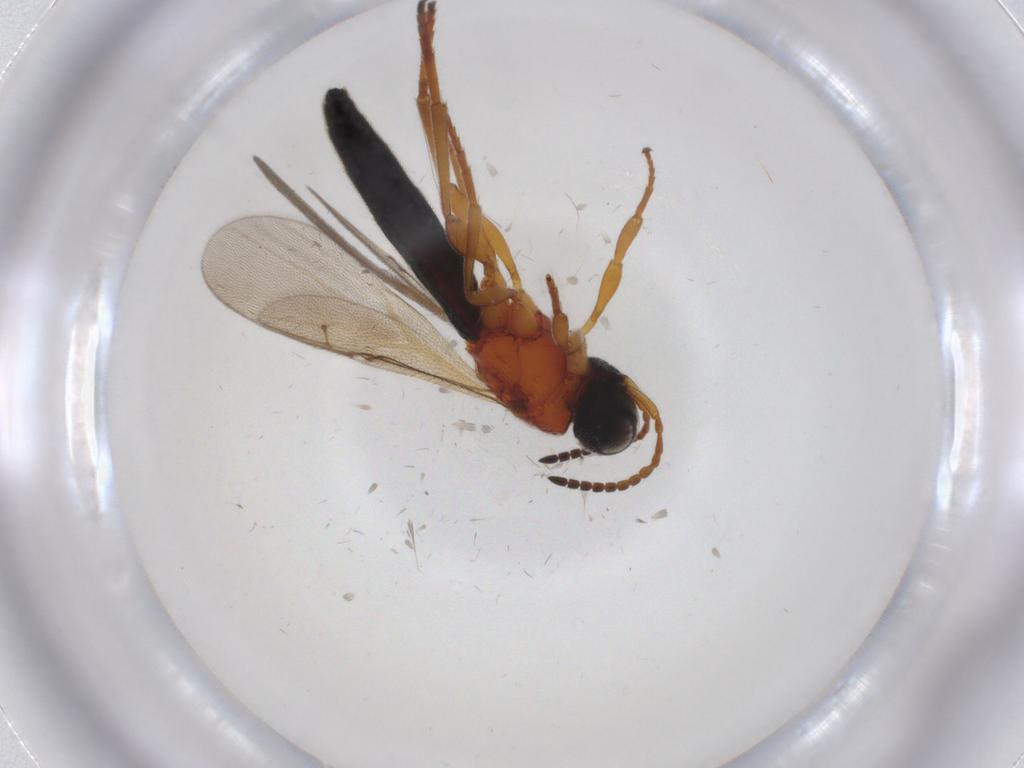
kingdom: Animalia
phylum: Arthropoda
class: Insecta
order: Hymenoptera
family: Scelionidae
